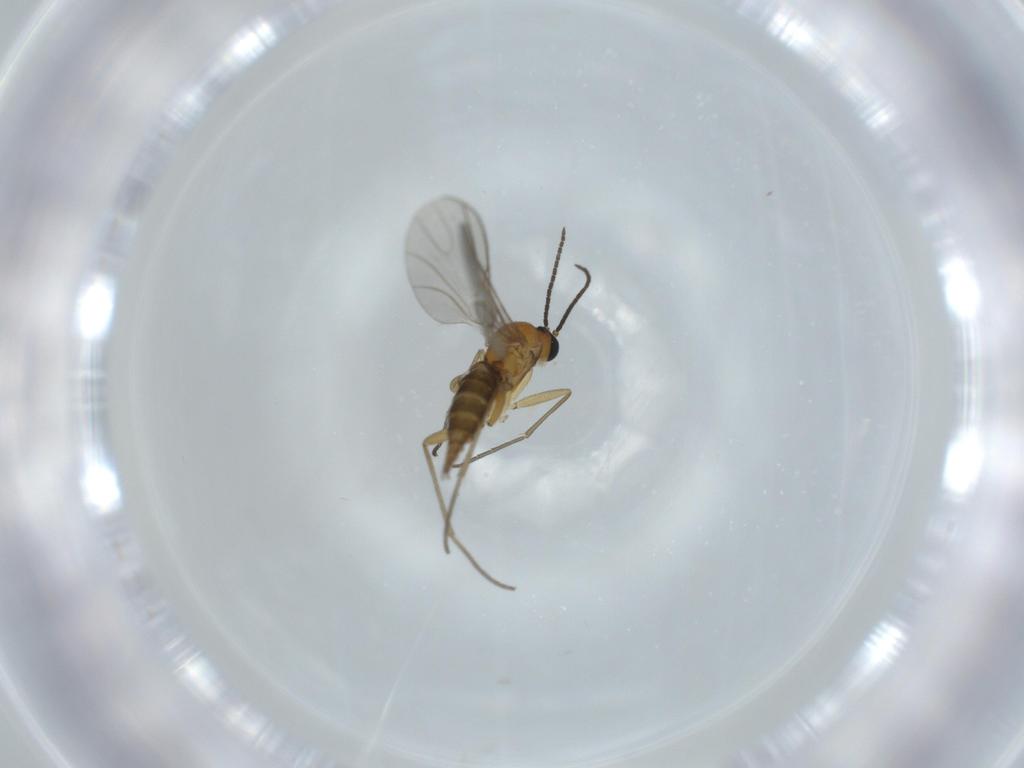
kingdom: Animalia
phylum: Arthropoda
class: Insecta
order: Diptera
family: Sciaridae
